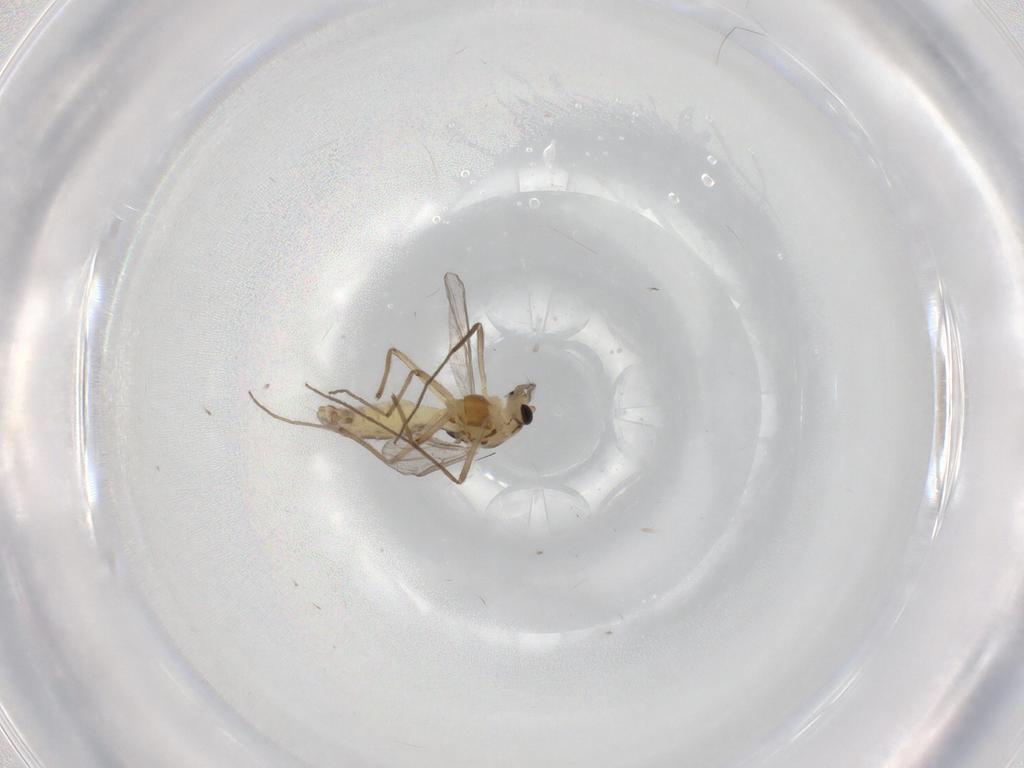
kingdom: Animalia
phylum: Arthropoda
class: Insecta
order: Diptera
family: Chironomidae
